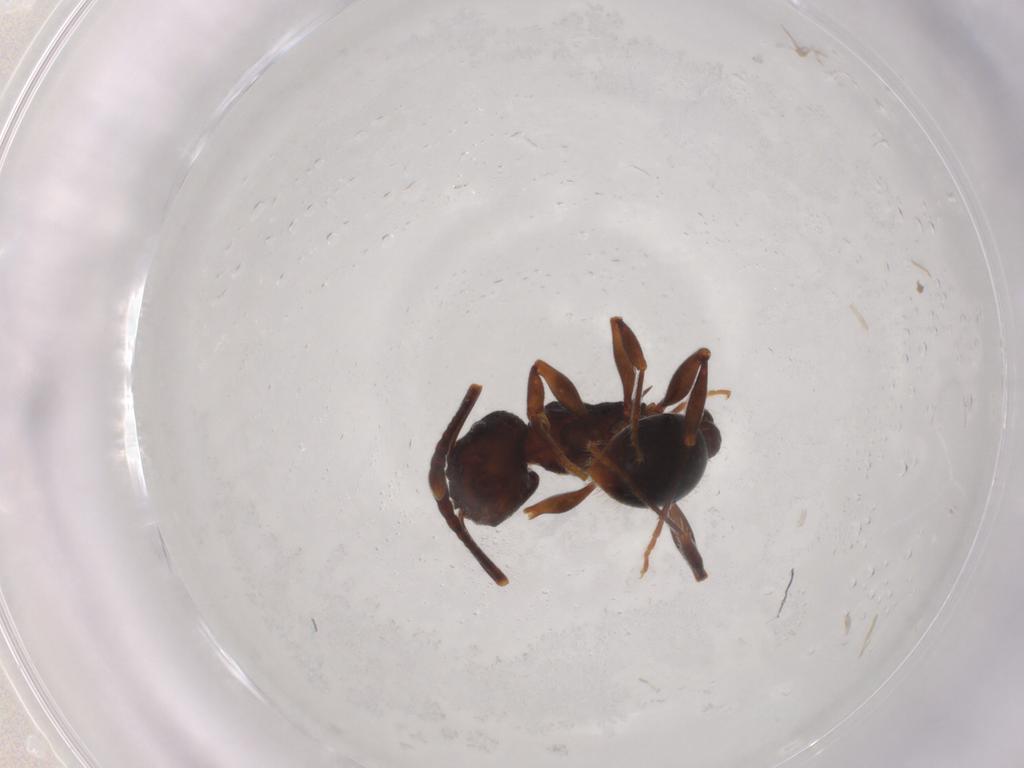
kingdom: Animalia
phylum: Arthropoda
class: Insecta
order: Hymenoptera
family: Formicidae
